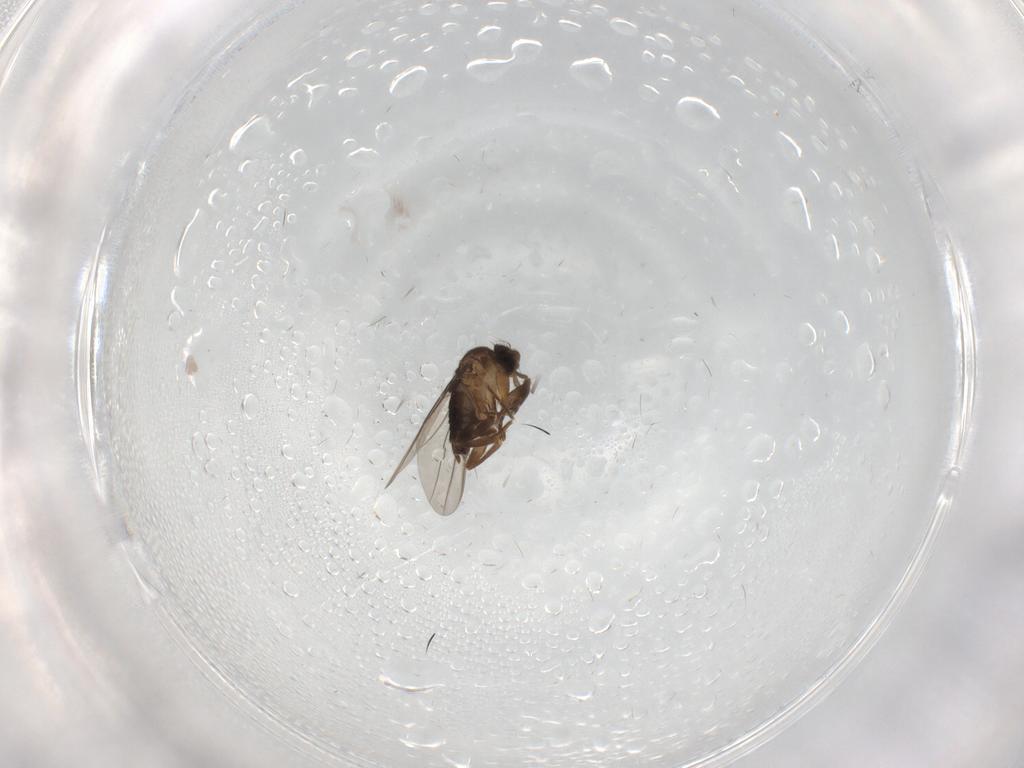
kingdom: Animalia
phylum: Arthropoda
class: Insecta
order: Diptera
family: Phoridae
